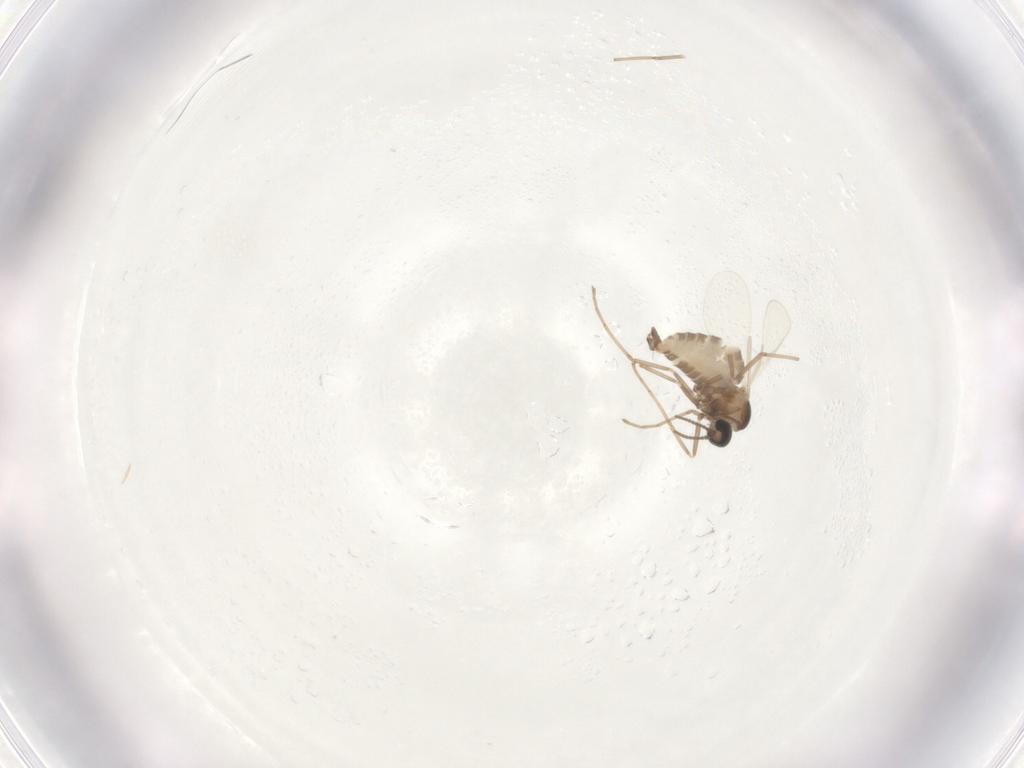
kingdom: Animalia
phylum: Arthropoda
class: Insecta
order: Diptera
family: Cecidomyiidae
